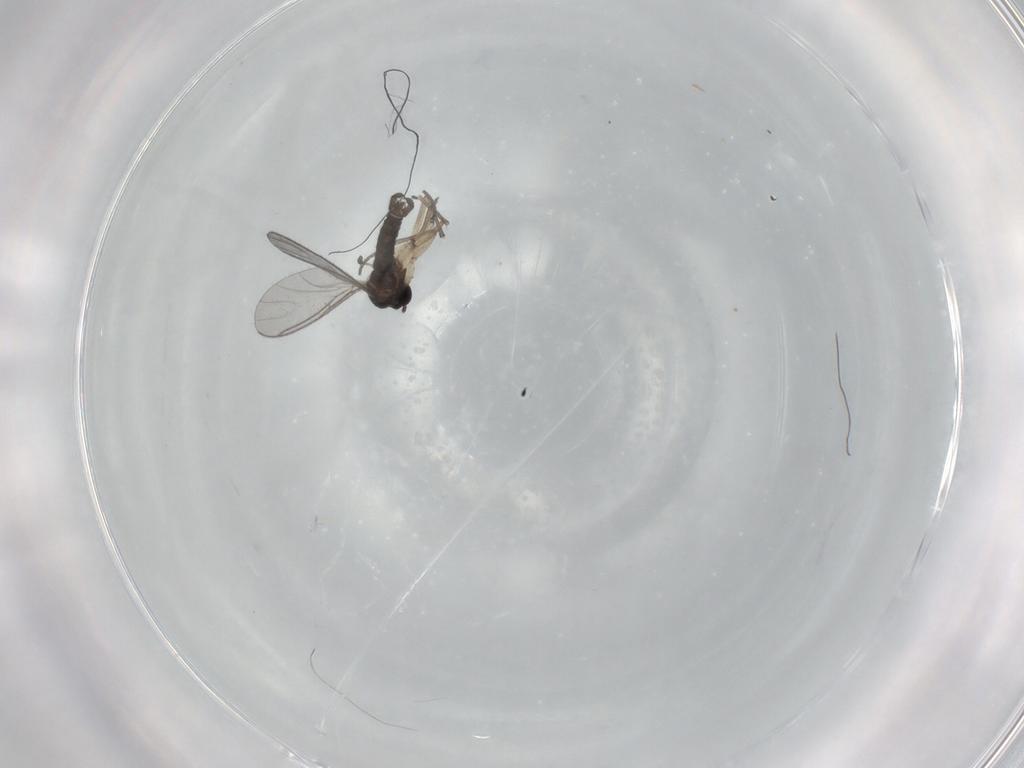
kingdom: Animalia
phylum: Arthropoda
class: Insecta
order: Diptera
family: Sciaridae
